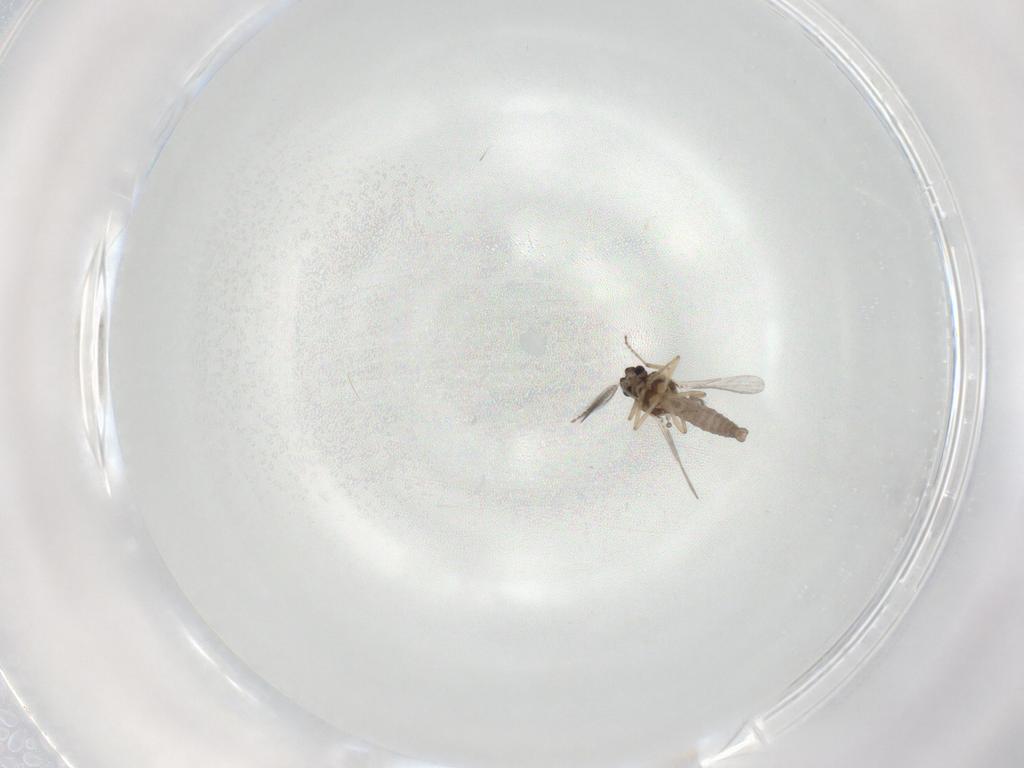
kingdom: Animalia
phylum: Arthropoda
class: Insecta
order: Diptera
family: Ceratopogonidae
